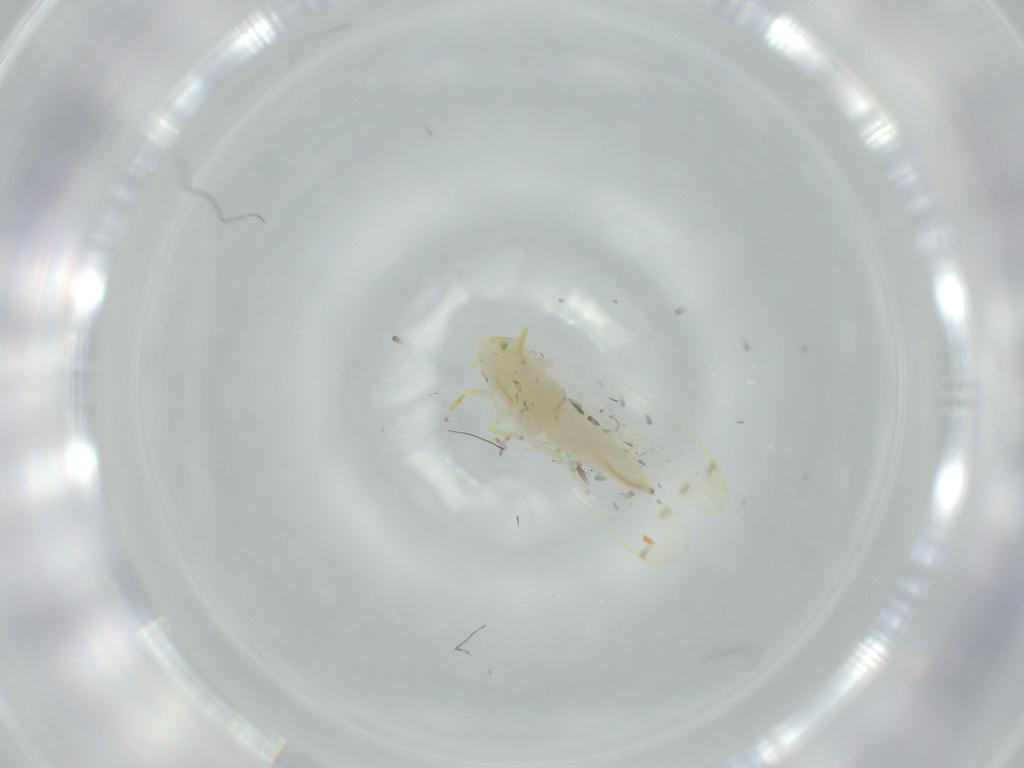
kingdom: Animalia
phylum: Arthropoda
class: Insecta
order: Hemiptera
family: Cicadellidae
